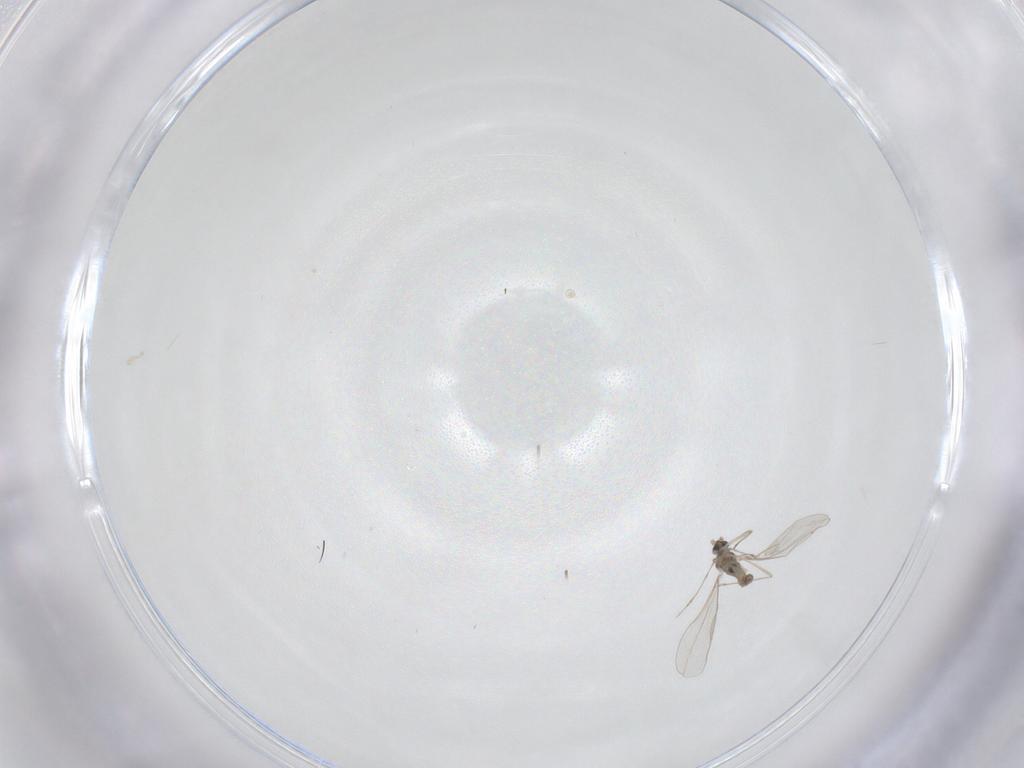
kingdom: Animalia
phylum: Arthropoda
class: Insecta
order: Diptera
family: Cecidomyiidae
